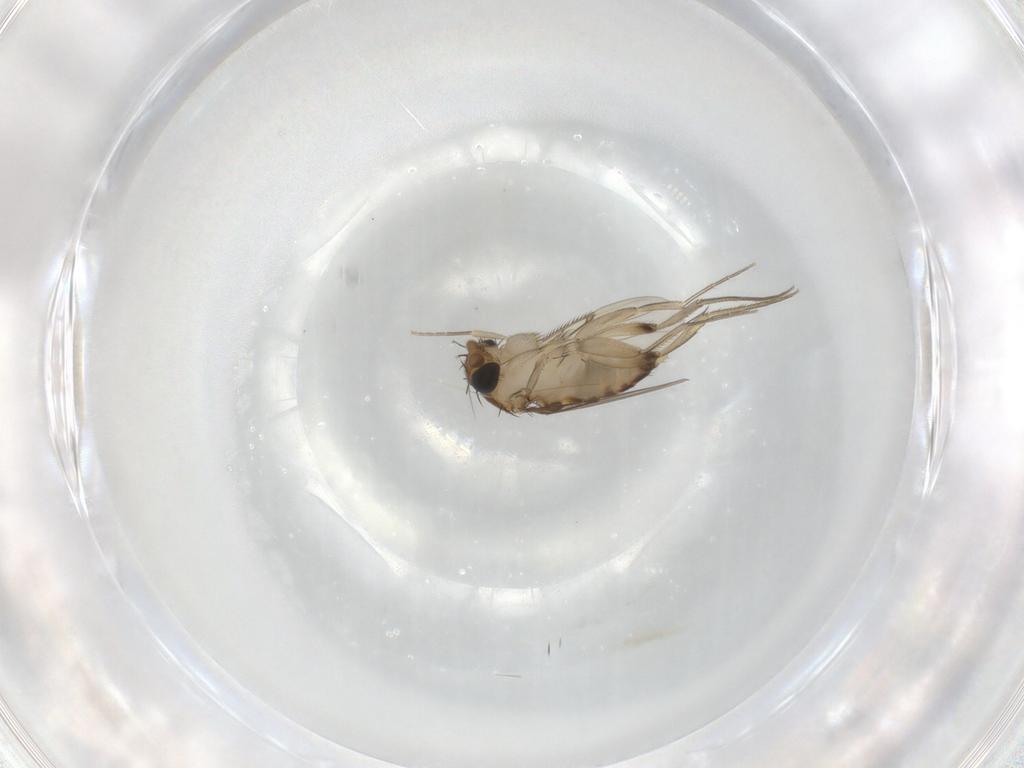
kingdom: Animalia
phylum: Arthropoda
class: Insecta
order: Diptera
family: Phoridae
